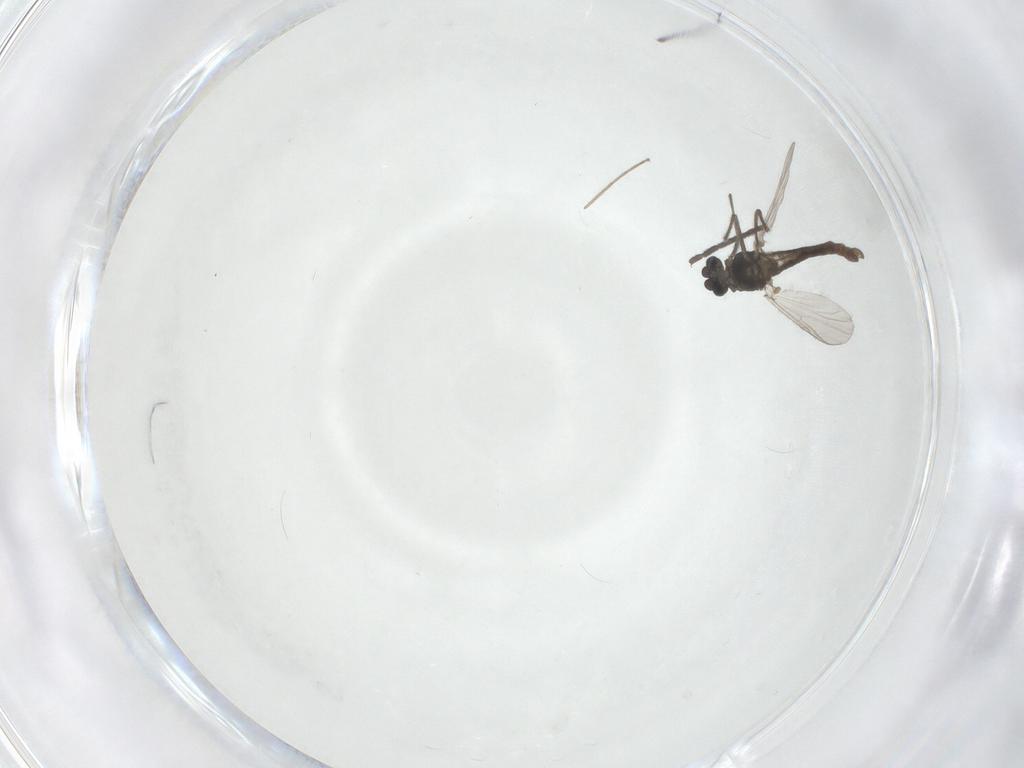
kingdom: Animalia
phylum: Arthropoda
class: Insecta
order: Diptera
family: Chironomidae
